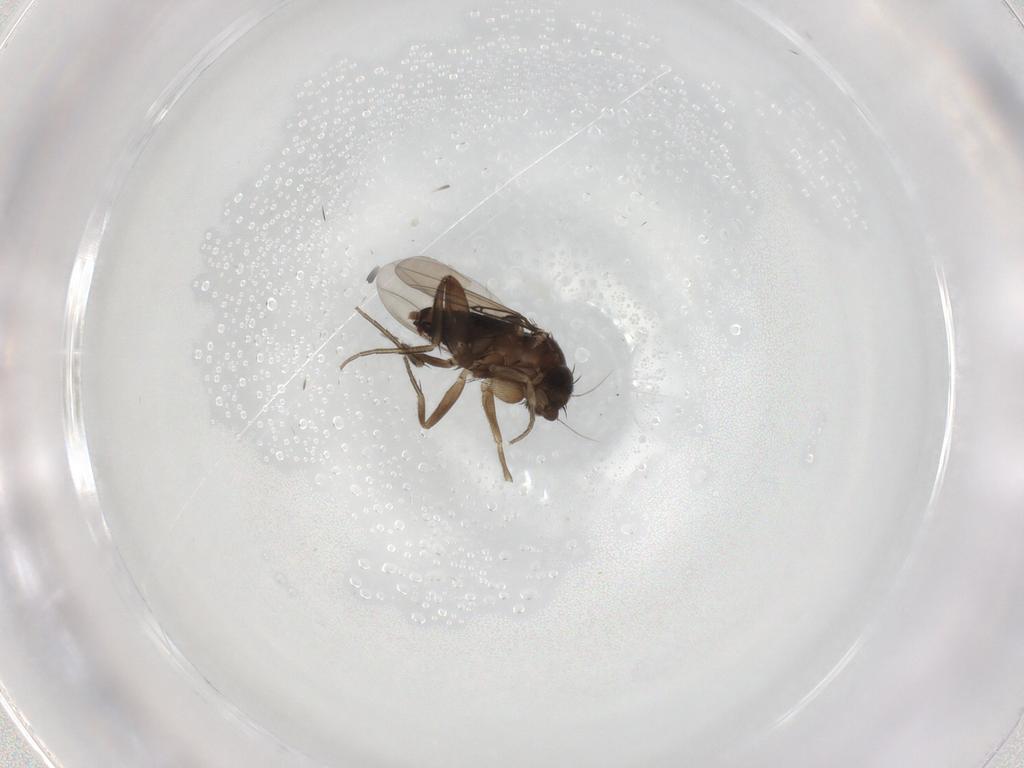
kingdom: Animalia
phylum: Arthropoda
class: Insecta
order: Diptera
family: Phoridae
